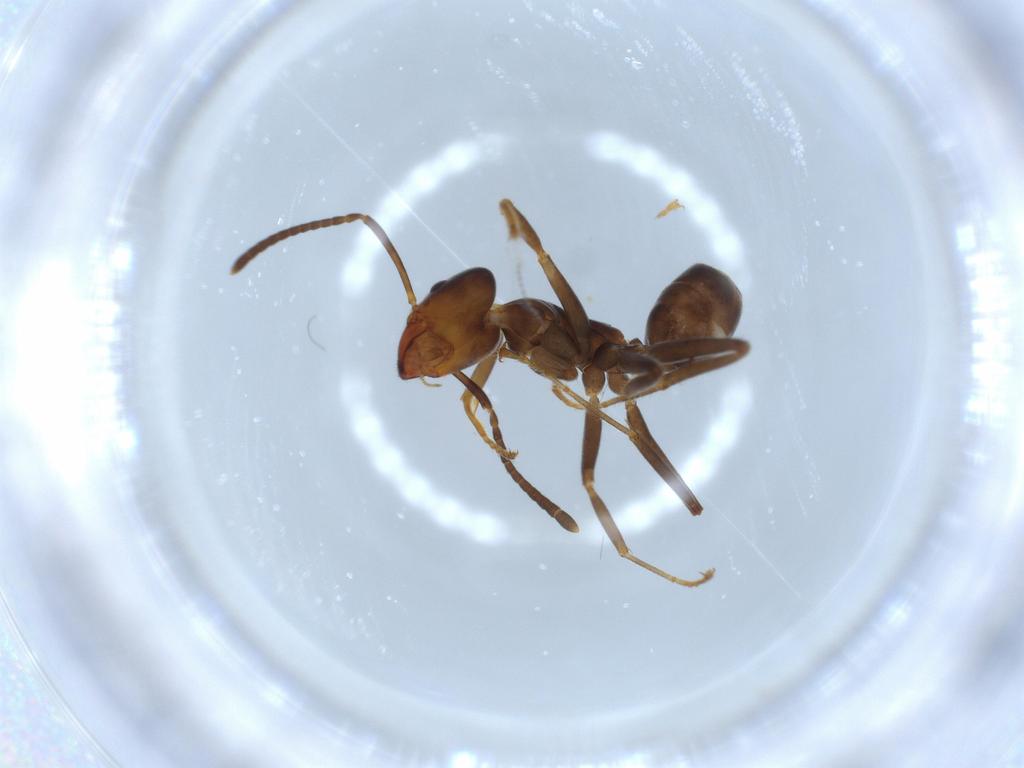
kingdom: Animalia
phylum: Arthropoda
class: Insecta
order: Hymenoptera
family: Formicidae
